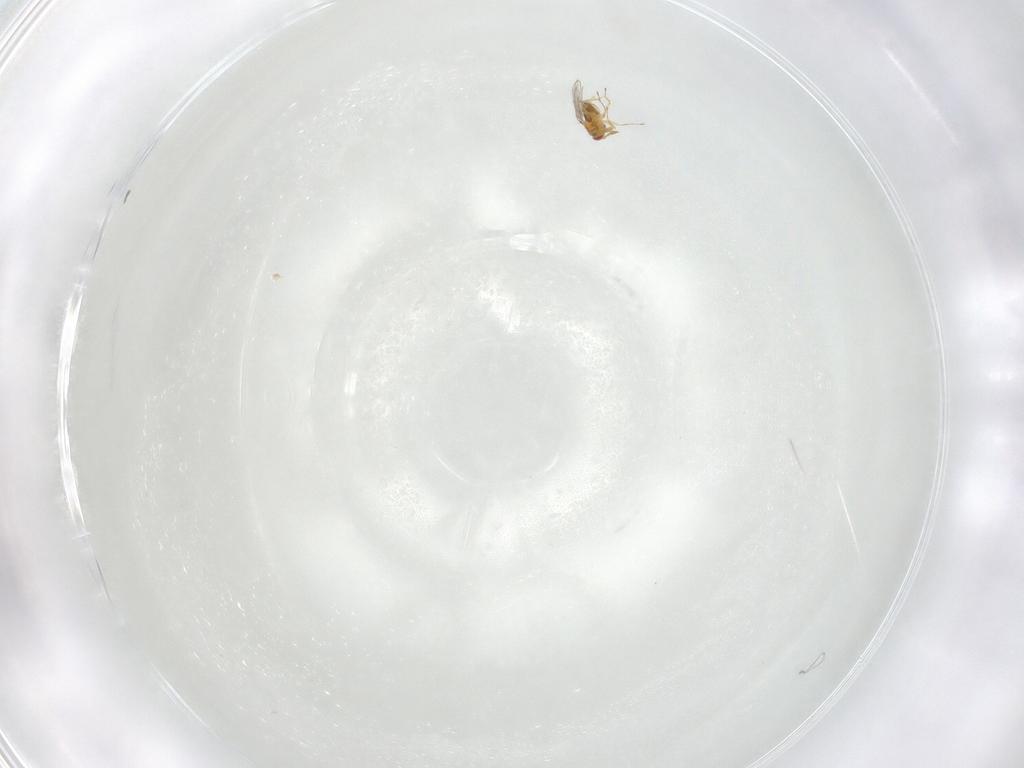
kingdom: Animalia
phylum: Arthropoda
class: Insecta
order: Hymenoptera
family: Trichogrammatidae
